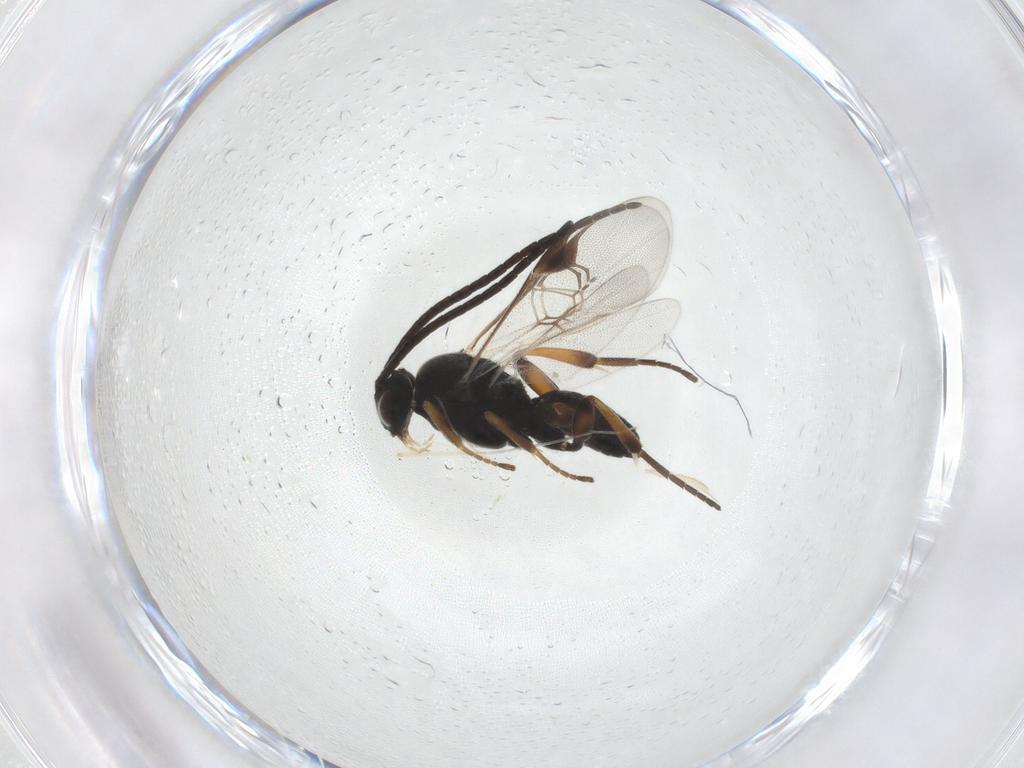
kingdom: Animalia
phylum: Arthropoda
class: Insecta
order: Hymenoptera
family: Braconidae
